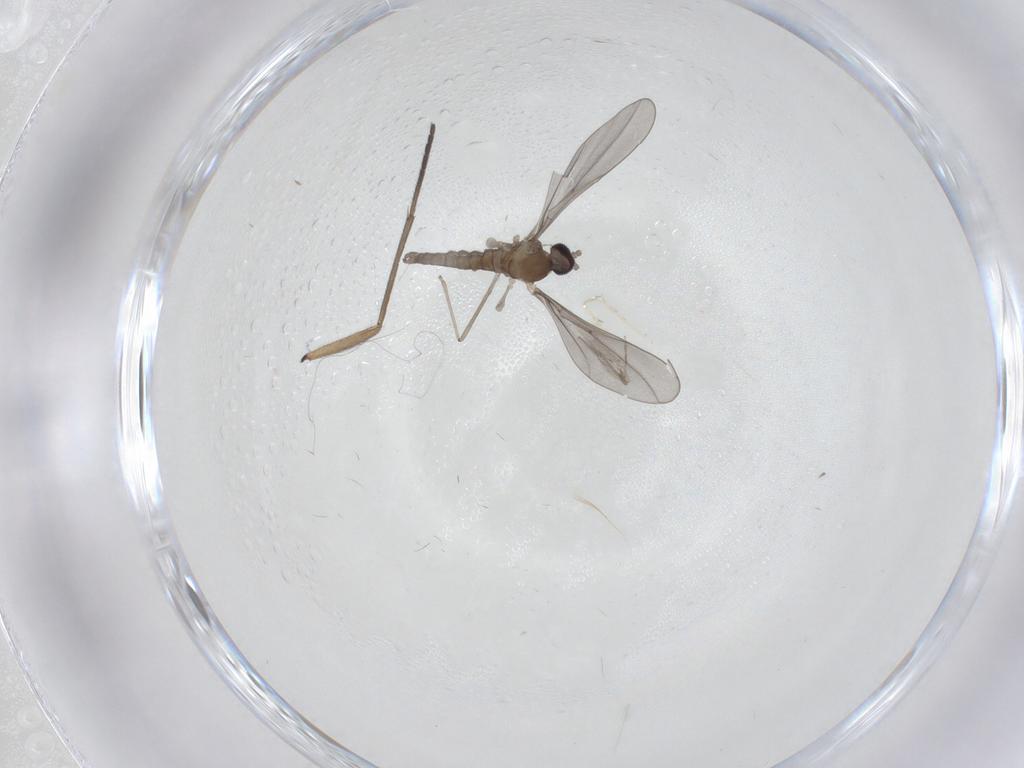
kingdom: Animalia
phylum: Arthropoda
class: Insecta
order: Diptera
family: Cecidomyiidae
